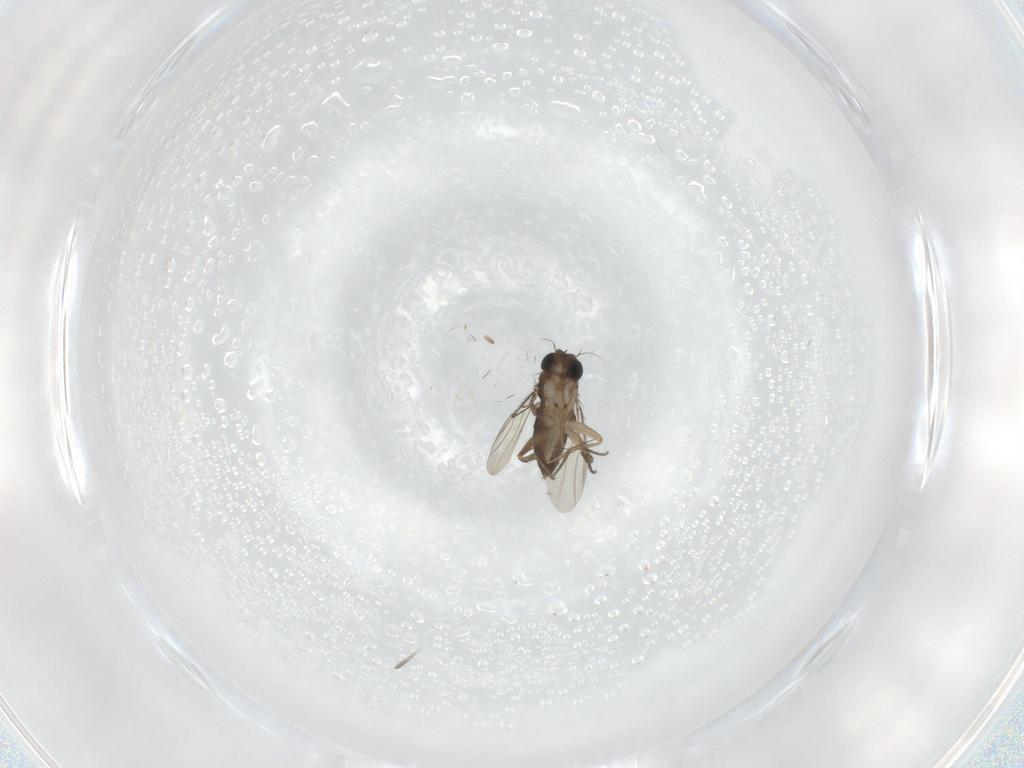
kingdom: Animalia
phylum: Arthropoda
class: Insecta
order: Diptera
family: Phoridae
